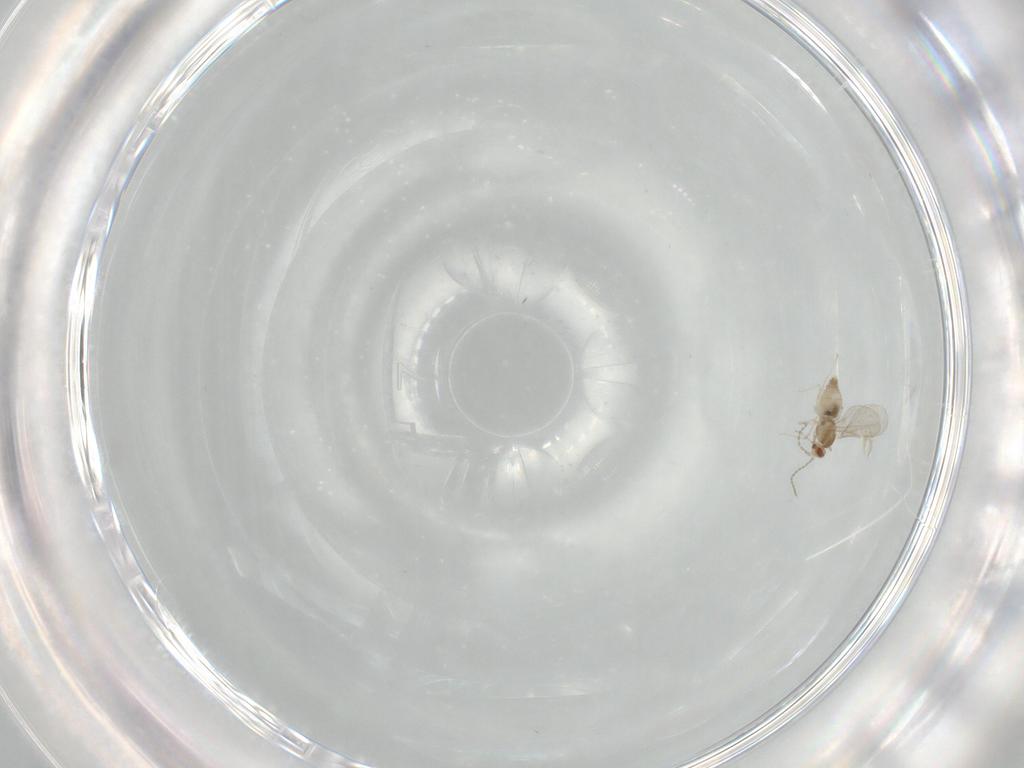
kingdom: Animalia
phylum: Arthropoda
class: Insecta
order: Diptera
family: Cecidomyiidae
